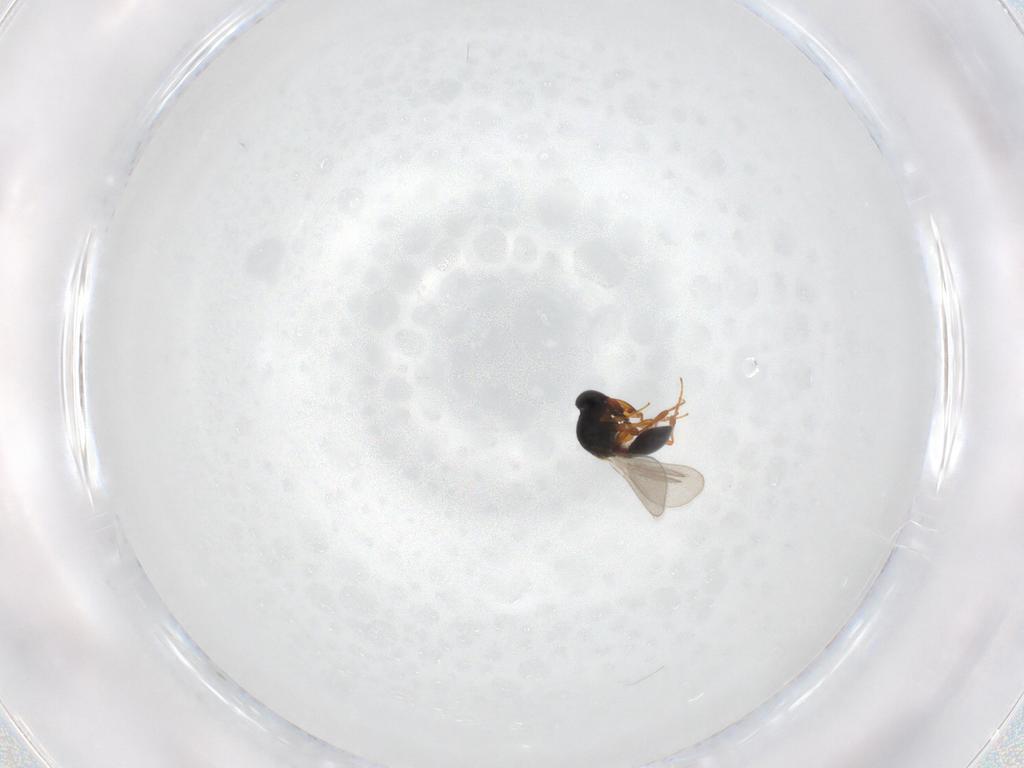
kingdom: Animalia
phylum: Arthropoda
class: Insecta
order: Hymenoptera
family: Platygastridae
